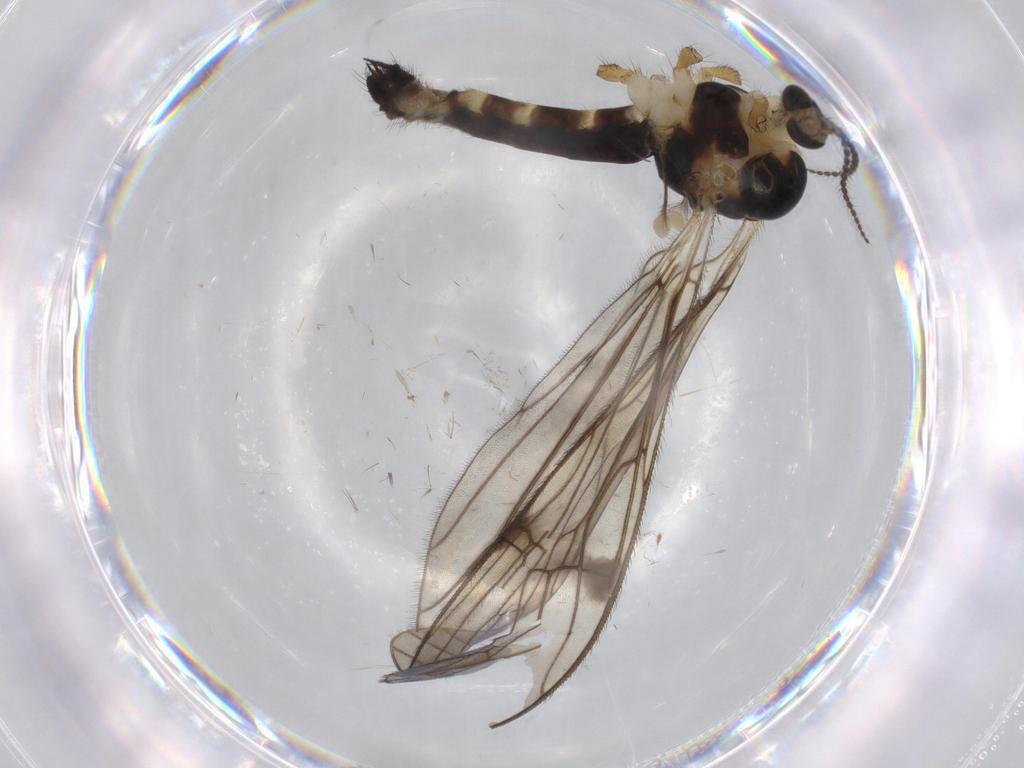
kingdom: Animalia
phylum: Arthropoda
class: Insecta
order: Diptera
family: Limoniidae
